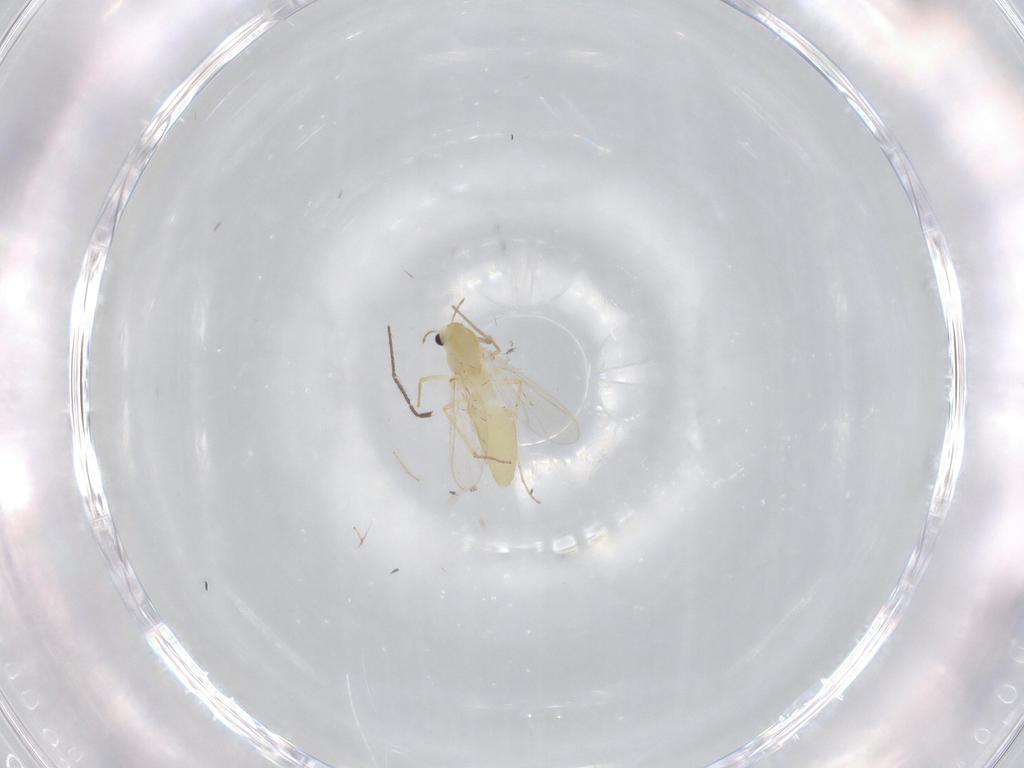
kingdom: Animalia
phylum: Arthropoda
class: Insecta
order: Diptera
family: Chironomidae
